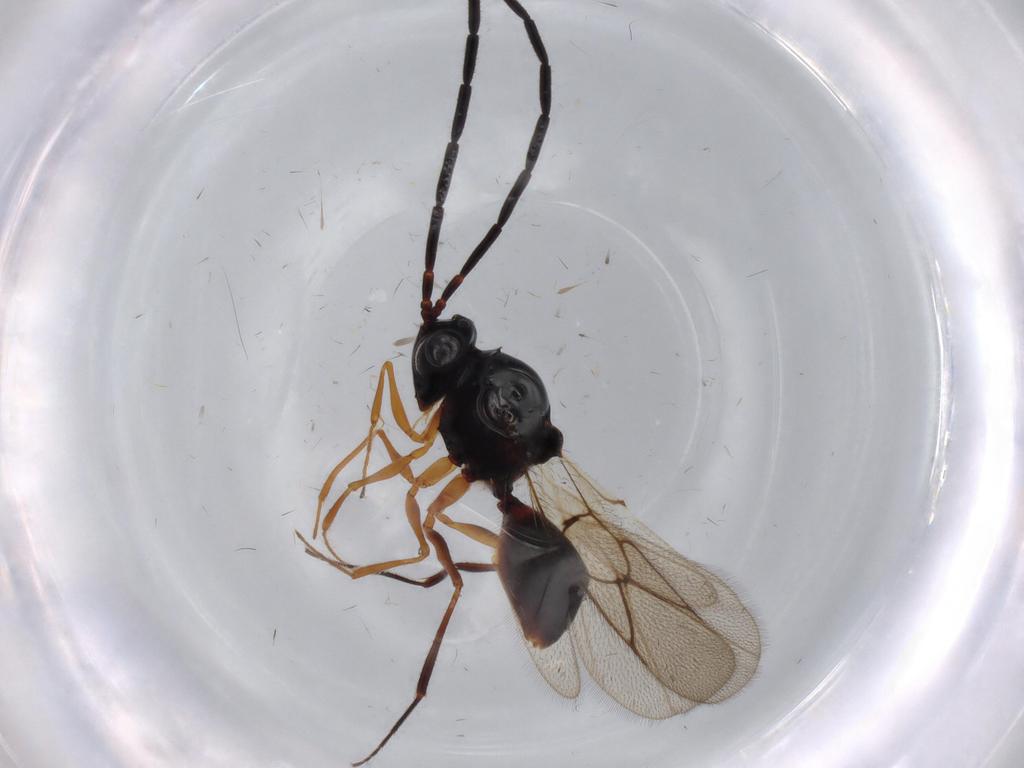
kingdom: Animalia
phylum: Arthropoda
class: Insecta
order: Hymenoptera
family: Figitidae
